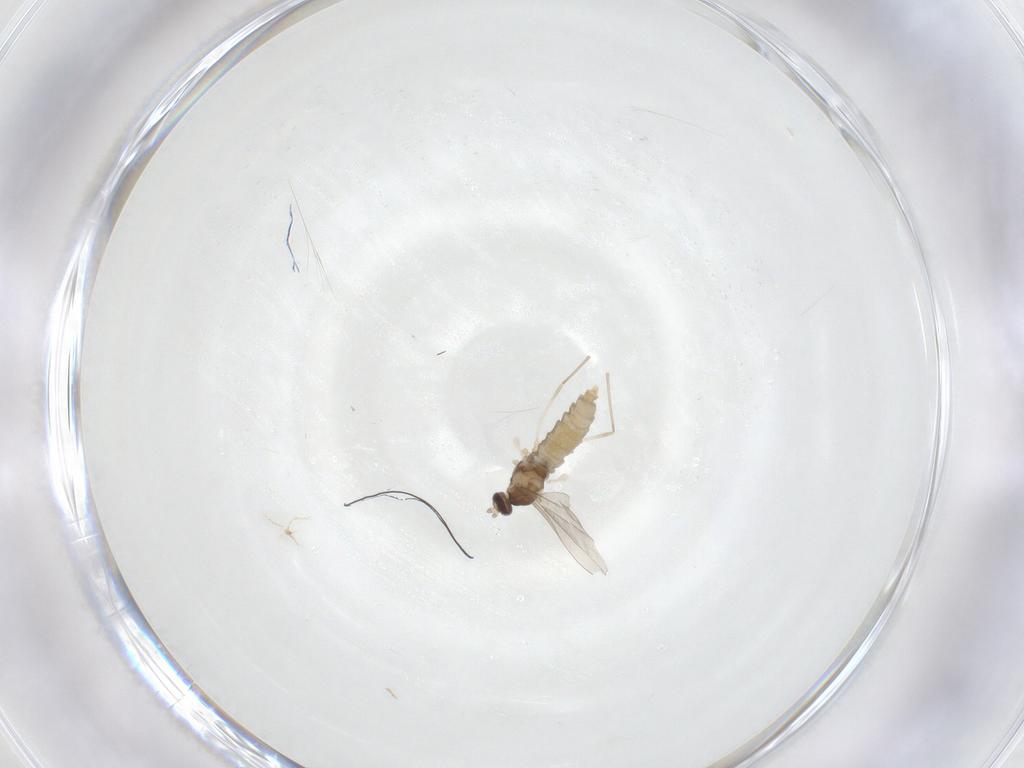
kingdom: Animalia
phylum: Arthropoda
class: Insecta
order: Diptera
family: Cecidomyiidae
